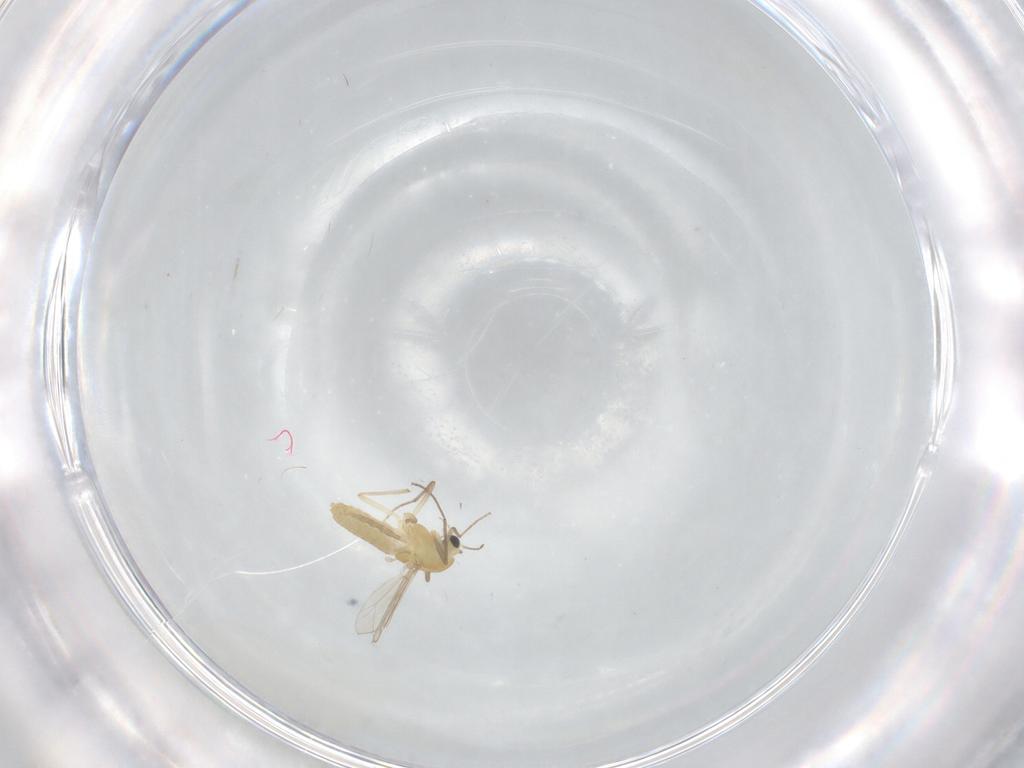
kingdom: Animalia
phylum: Arthropoda
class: Insecta
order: Diptera
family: Chironomidae
